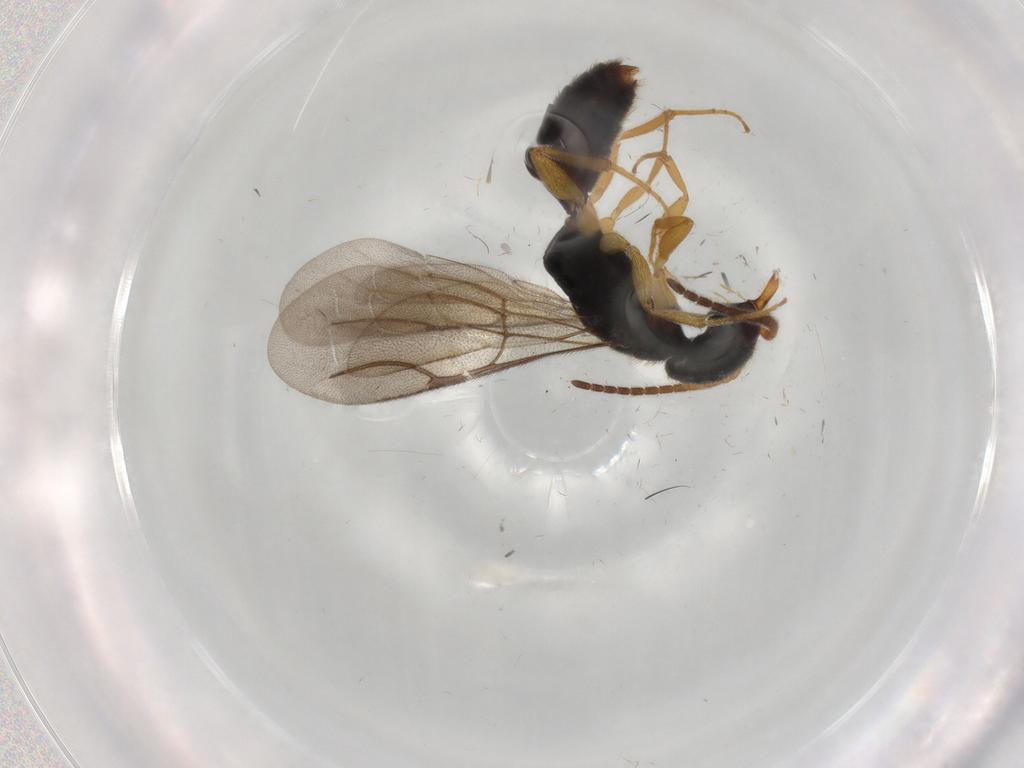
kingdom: Animalia
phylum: Arthropoda
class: Insecta
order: Hymenoptera
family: Bethylidae
